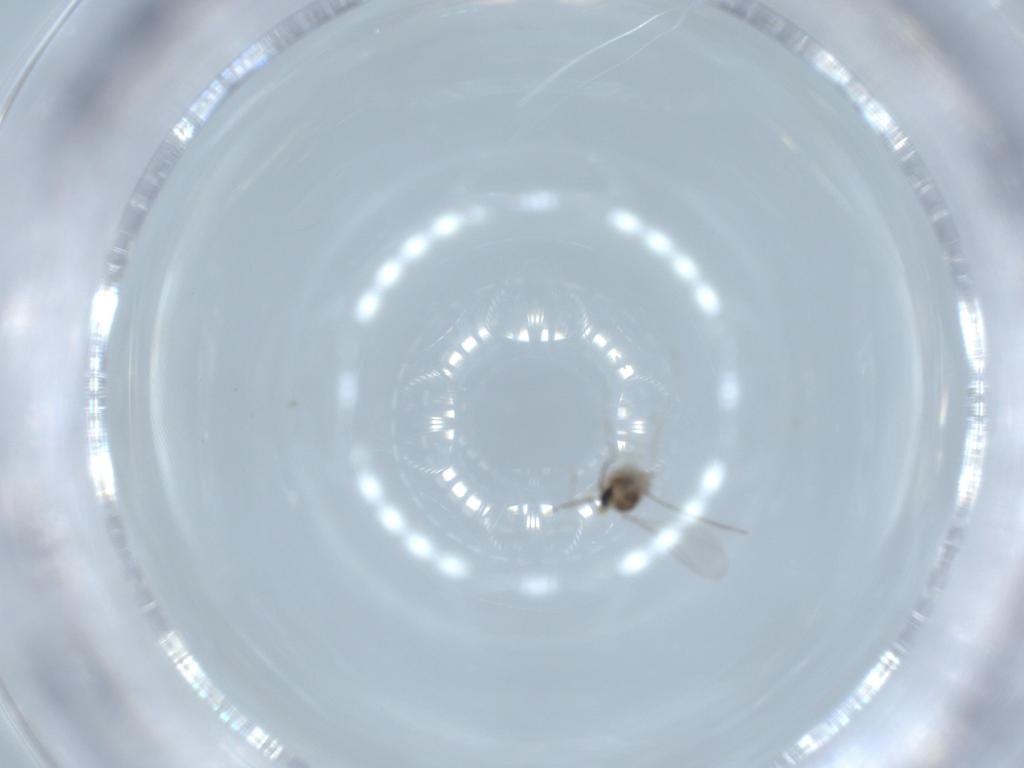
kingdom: Animalia
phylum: Arthropoda
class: Insecta
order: Diptera
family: Cecidomyiidae
